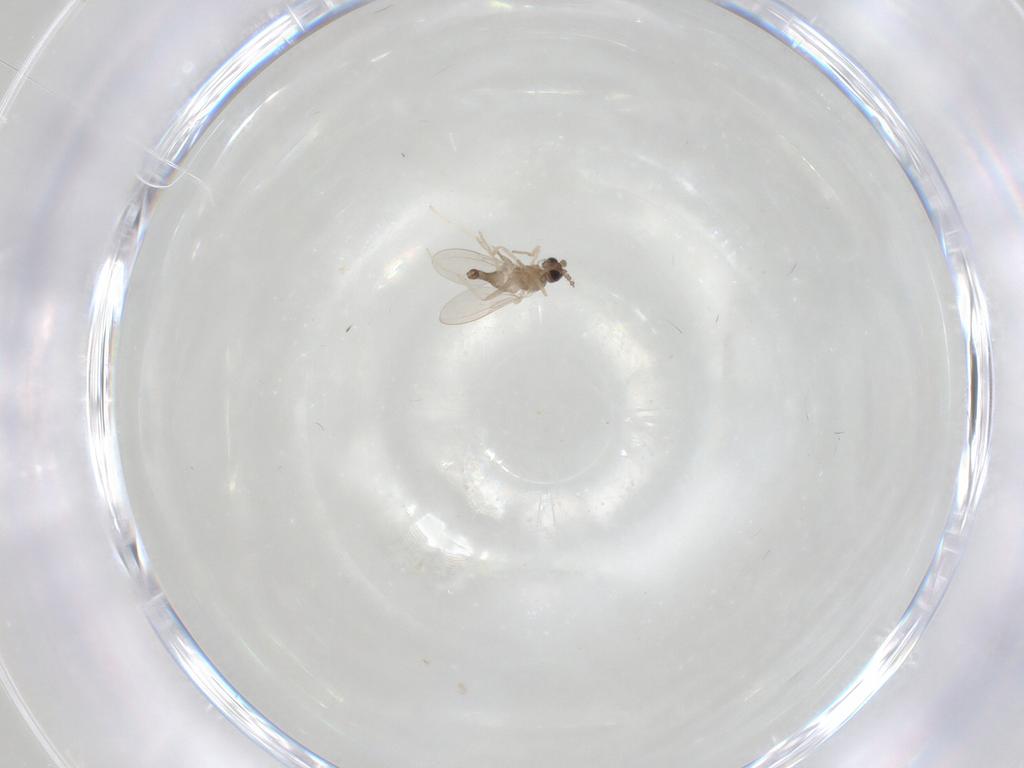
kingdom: Animalia
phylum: Arthropoda
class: Insecta
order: Diptera
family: Cecidomyiidae
